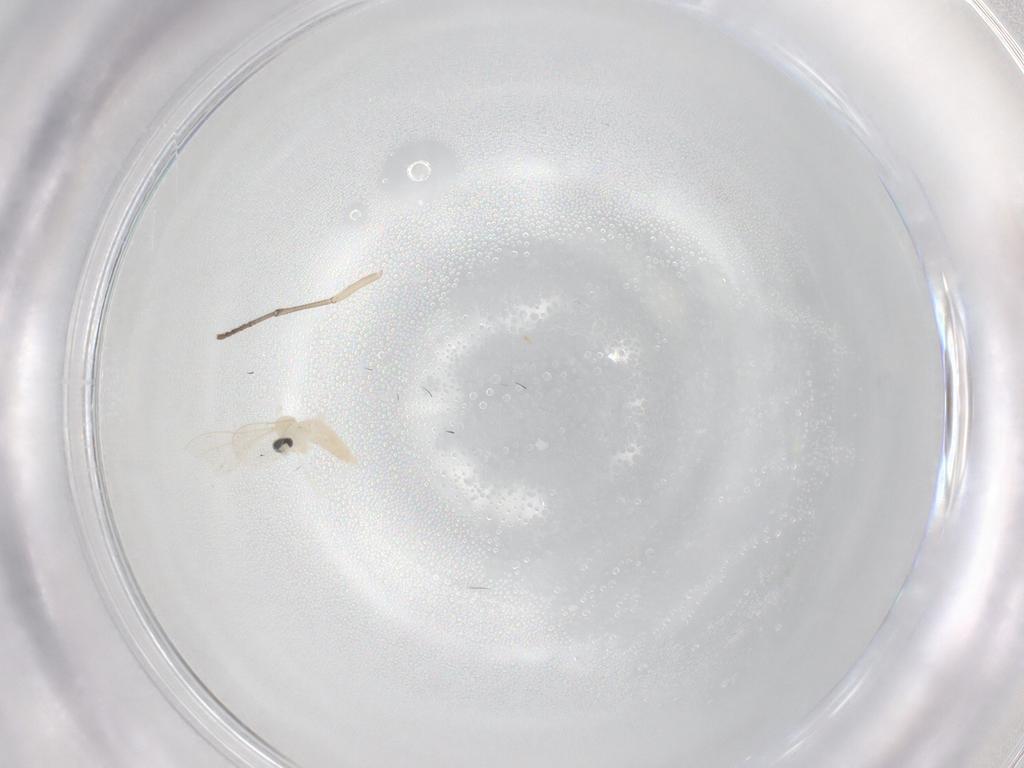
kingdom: Animalia
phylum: Arthropoda
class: Insecta
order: Diptera
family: Cecidomyiidae
